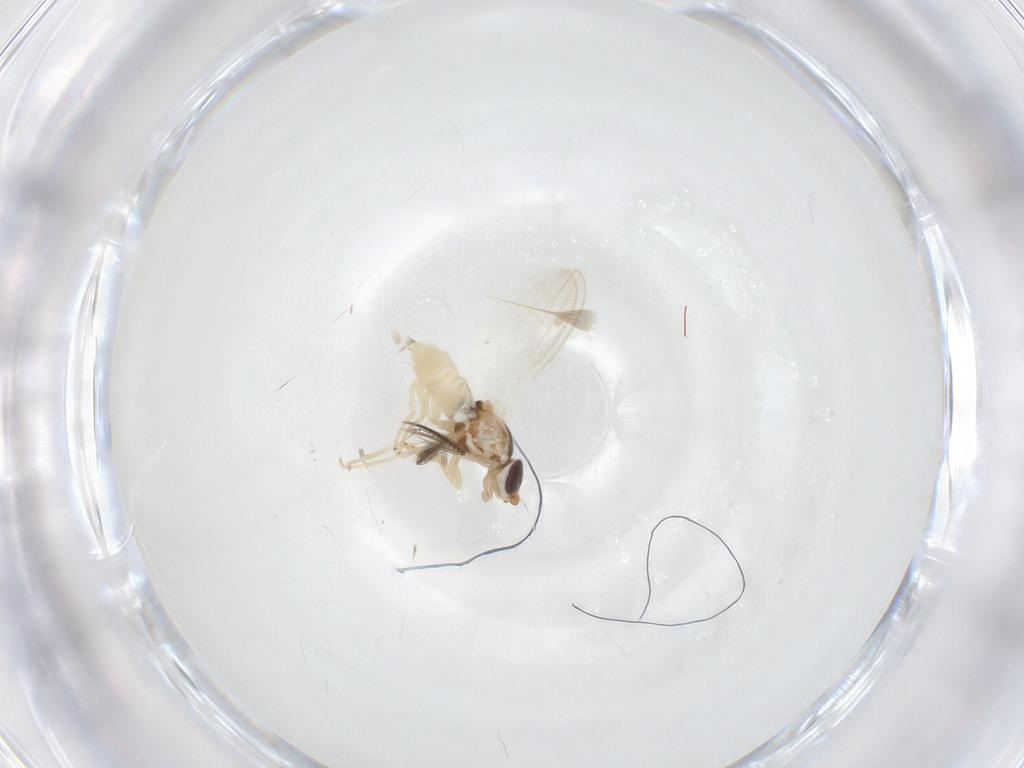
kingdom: Animalia
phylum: Arthropoda
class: Insecta
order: Diptera
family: Chloropidae
